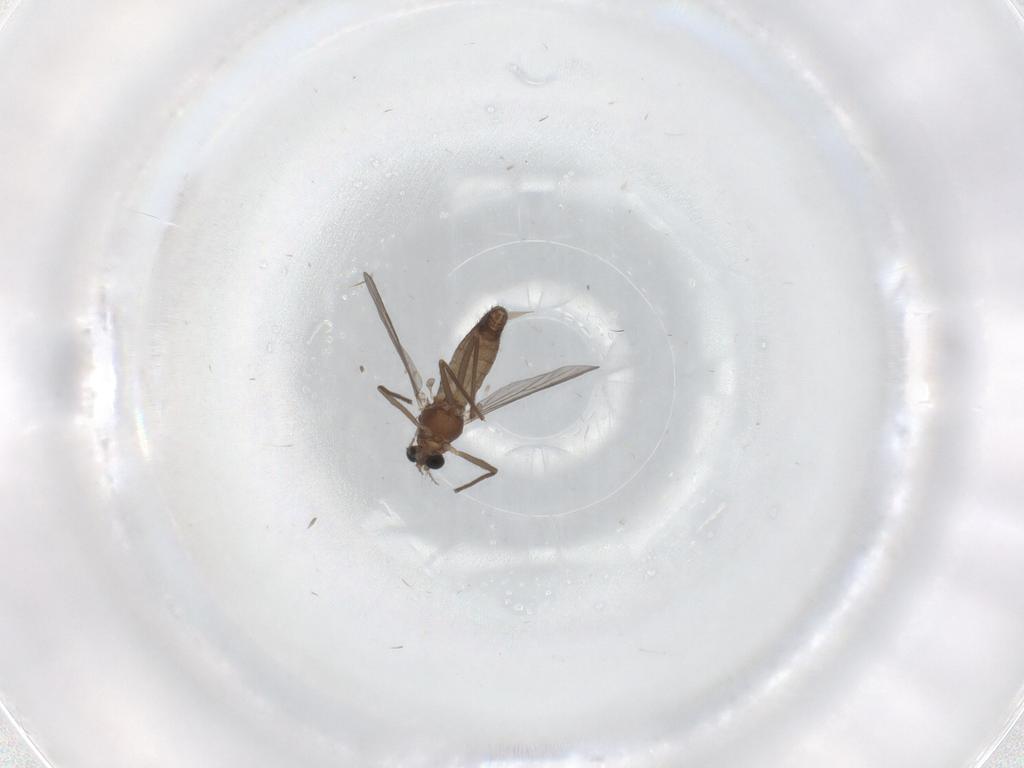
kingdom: Animalia
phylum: Arthropoda
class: Insecta
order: Diptera
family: Chironomidae
